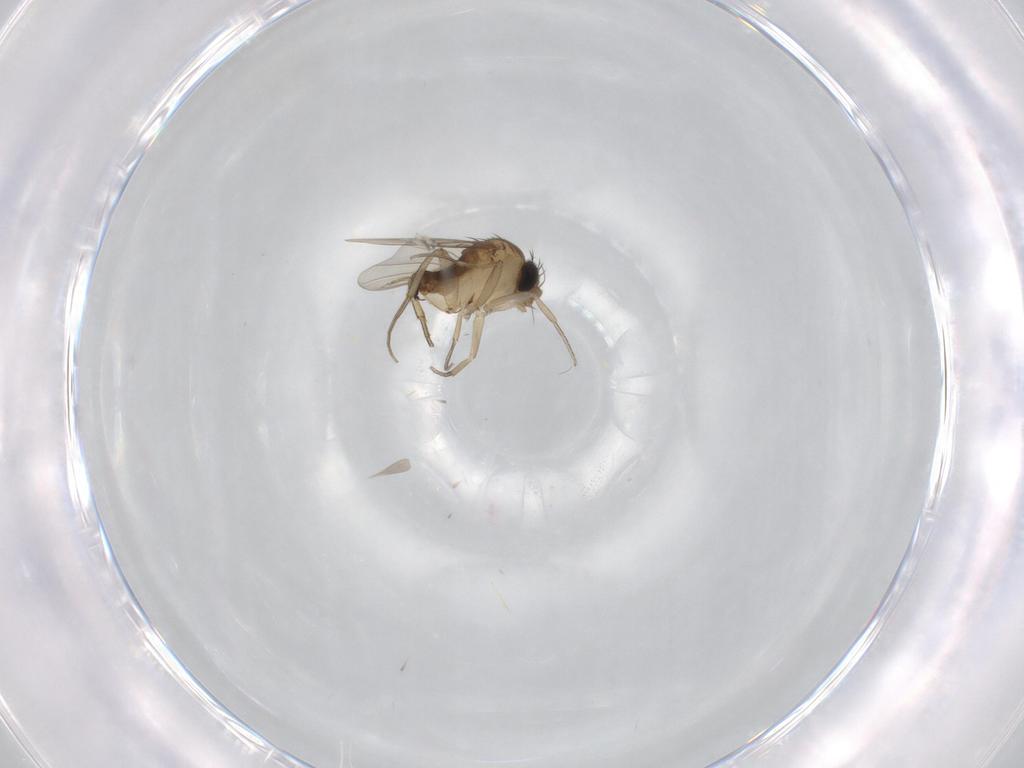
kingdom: Animalia
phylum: Arthropoda
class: Insecta
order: Diptera
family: Cecidomyiidae
